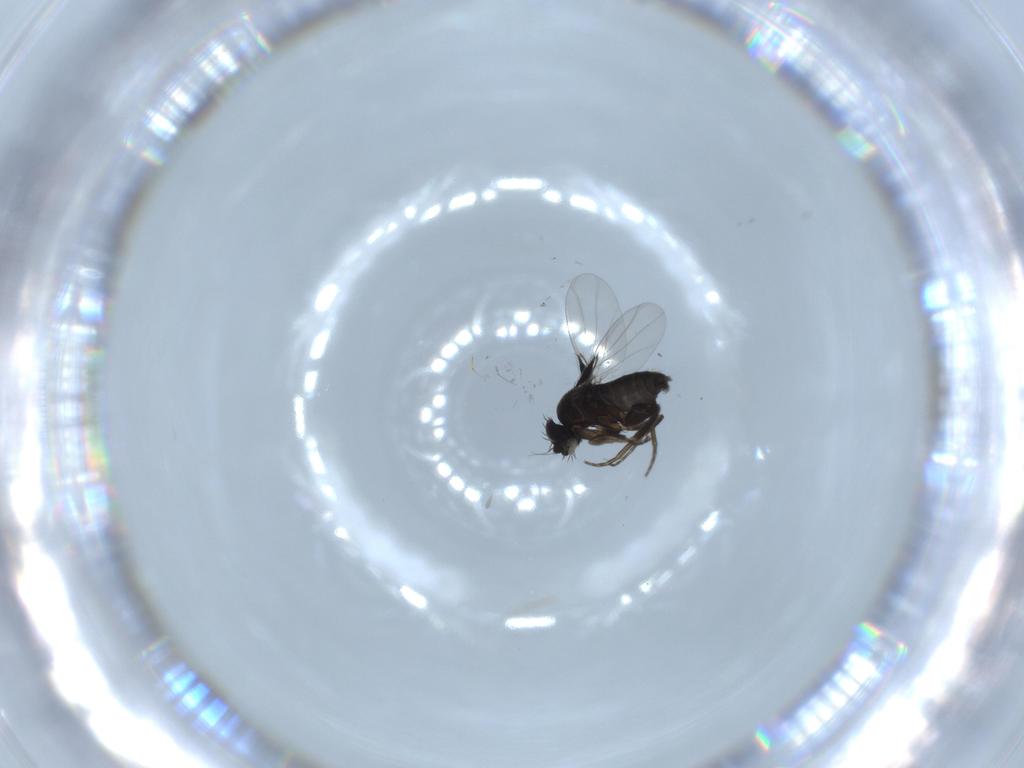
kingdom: Animalia
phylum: Arthropoda
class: Insecta
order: Diptera
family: Phoridae
